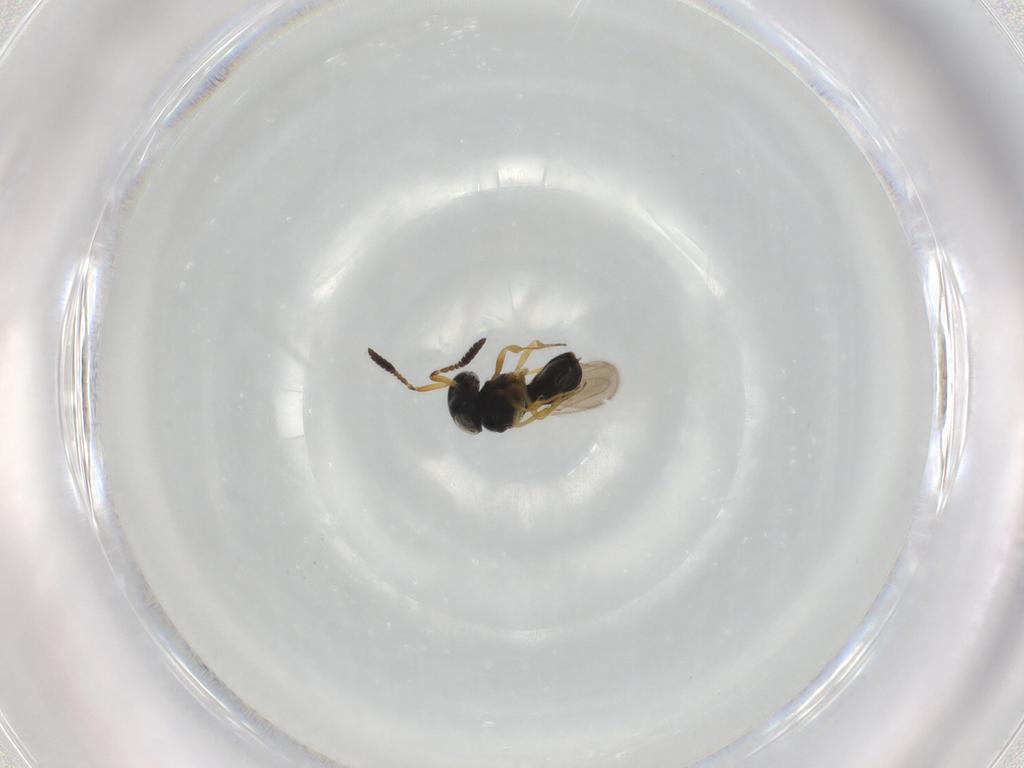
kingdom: Animalia
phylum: Arthropoda
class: Insecta
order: Hymenoptera
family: Scelionidae
